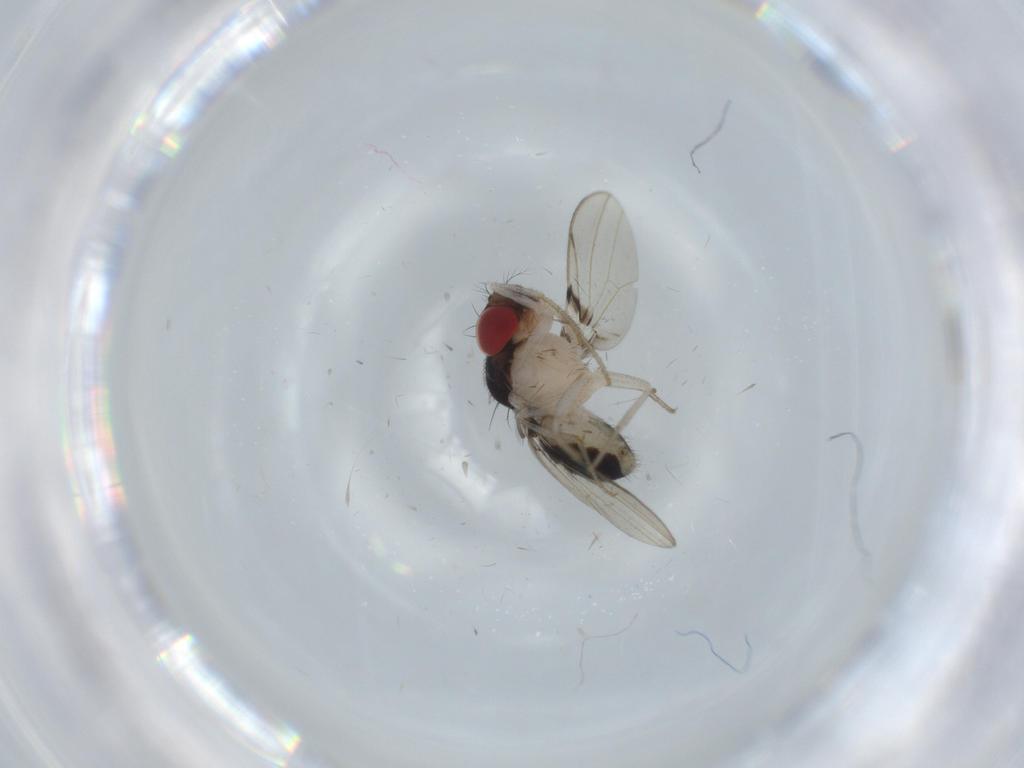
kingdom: Animalia
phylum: Arthropoda
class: Insecta
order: Diptera
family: Drosophilidae
